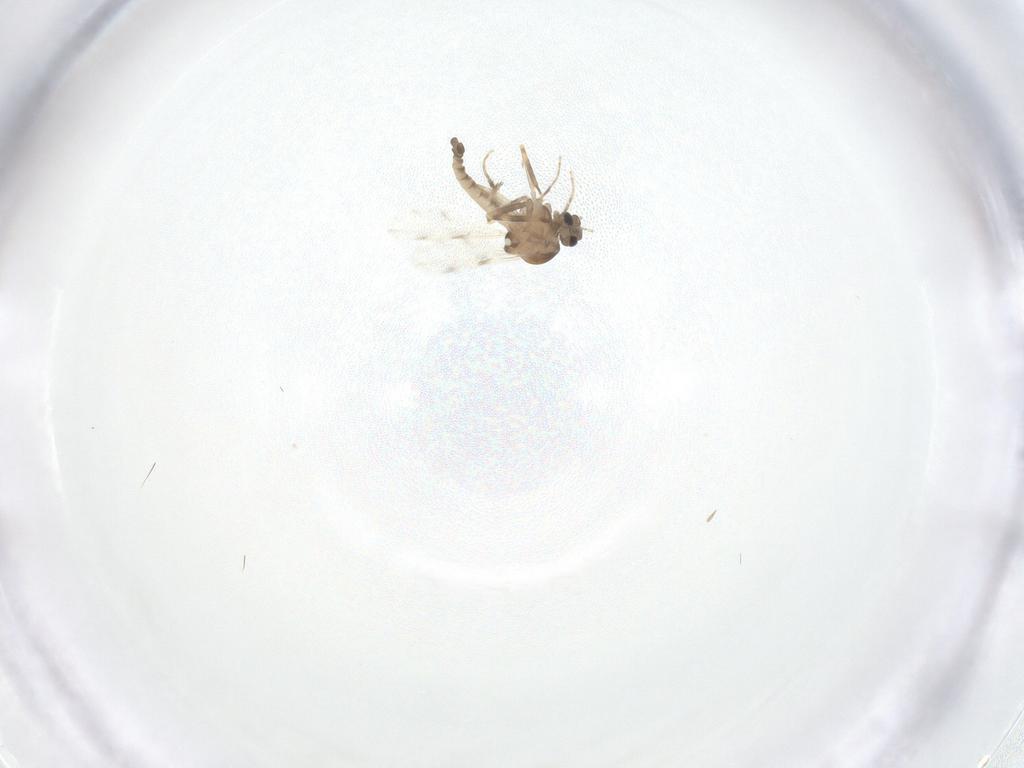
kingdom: Animalia
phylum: Arthropoda
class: Insecta
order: Diptera
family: Ceratopogonidae
